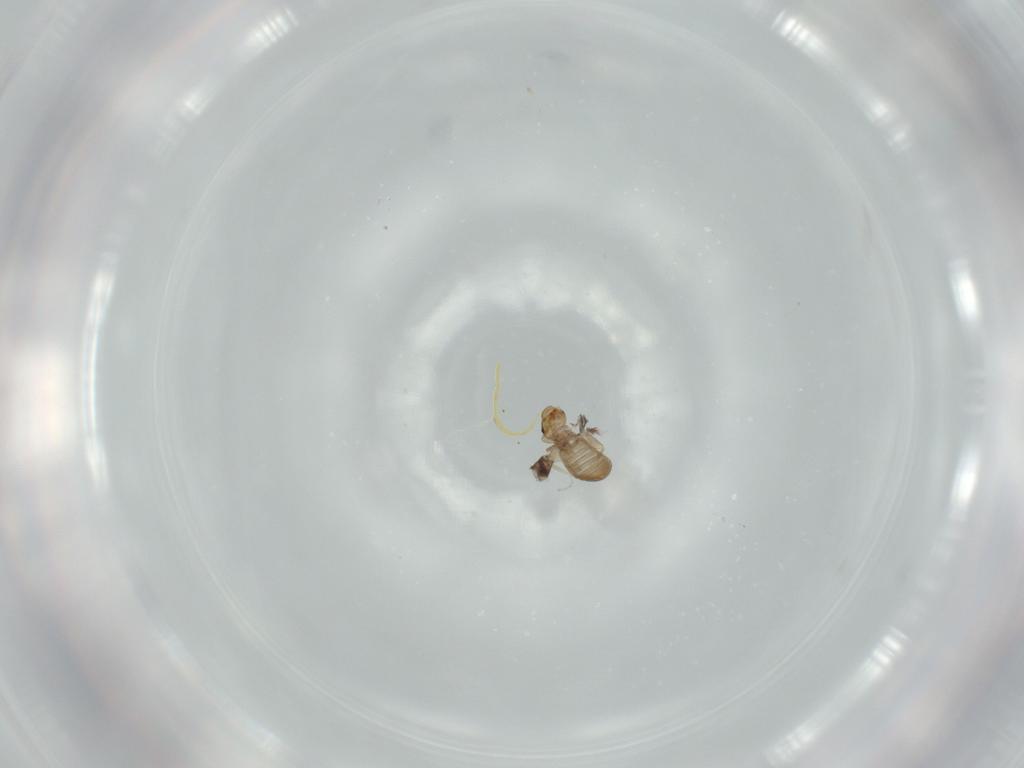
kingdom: Animalia
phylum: Arthropoda
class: Insecta
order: Psocodea
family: Liposcelididae
